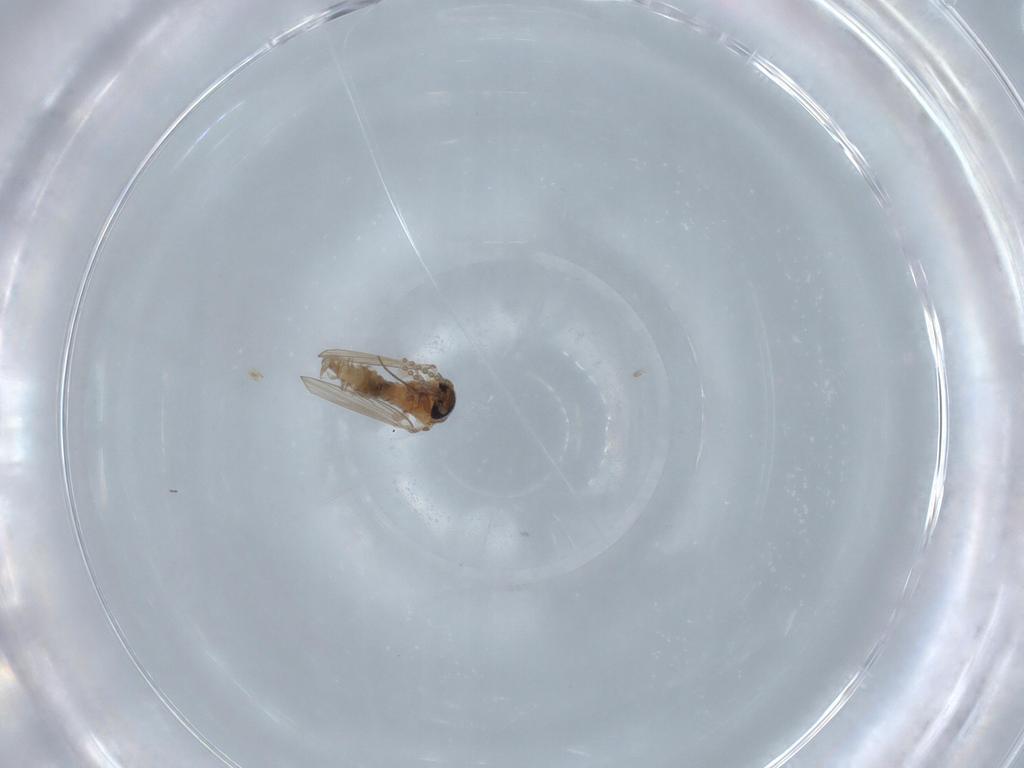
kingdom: Animalia
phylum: Arthropoda
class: Insecta
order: Diptera
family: Psychodidae
